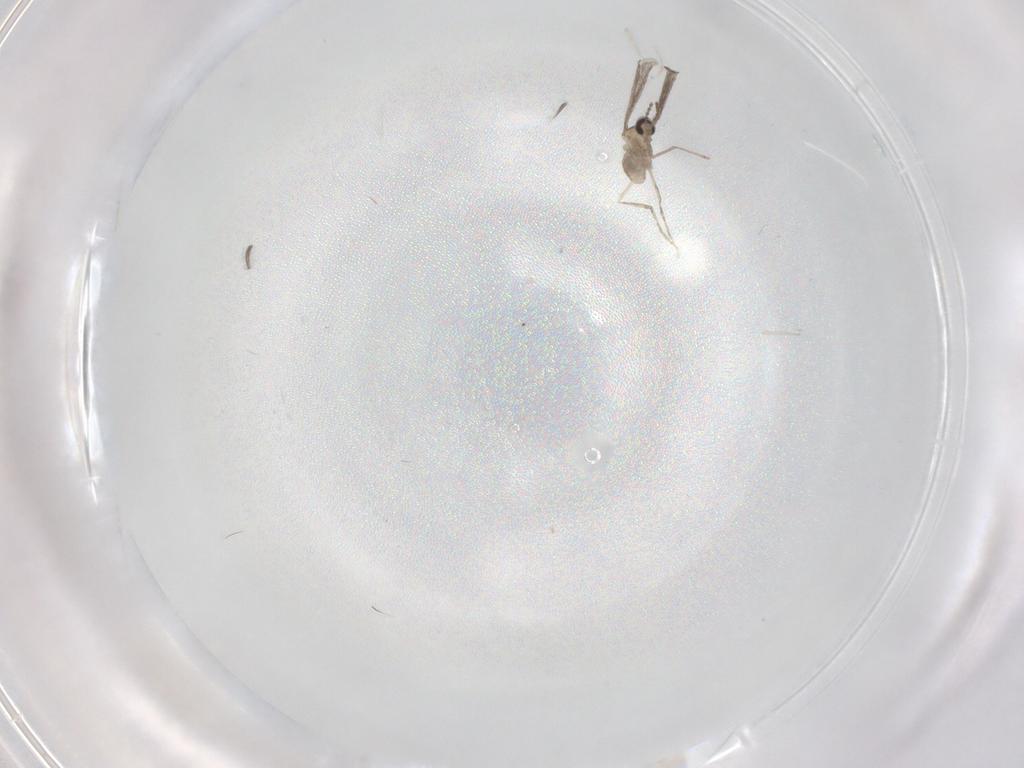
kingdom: Animalia
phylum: Arthropoda
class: Insecta
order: Diptera
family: Cecidomyiidae
